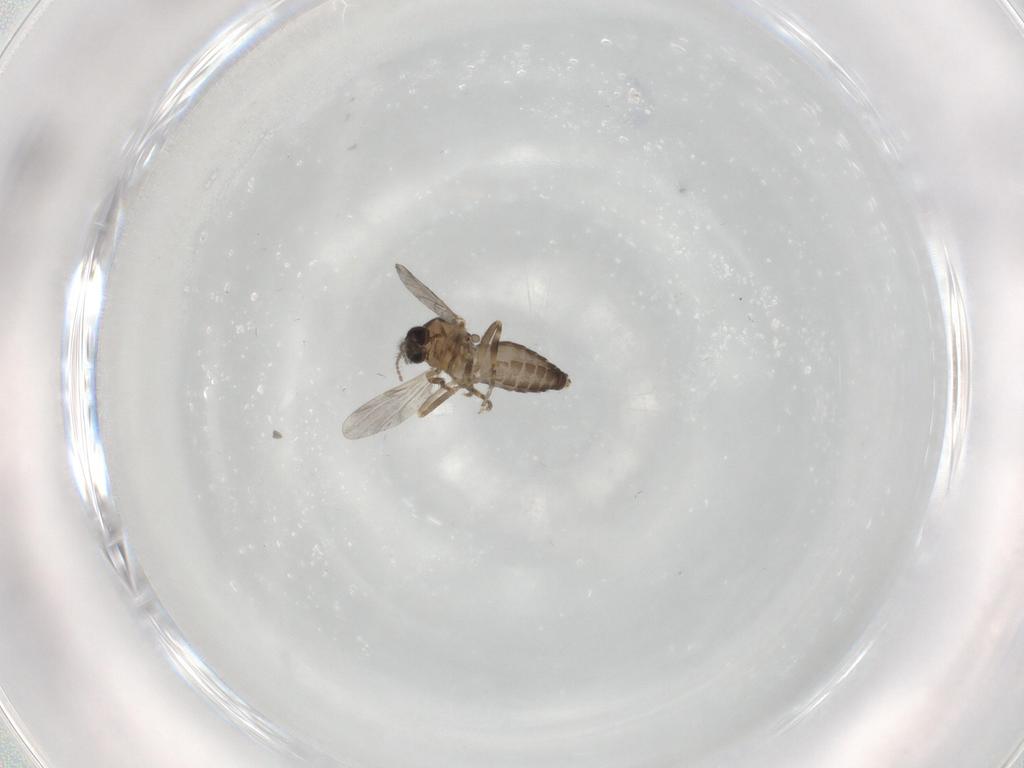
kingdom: Animalia
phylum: Arthropoda
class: Insecta
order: Diptera
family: Ceratopogonidae
